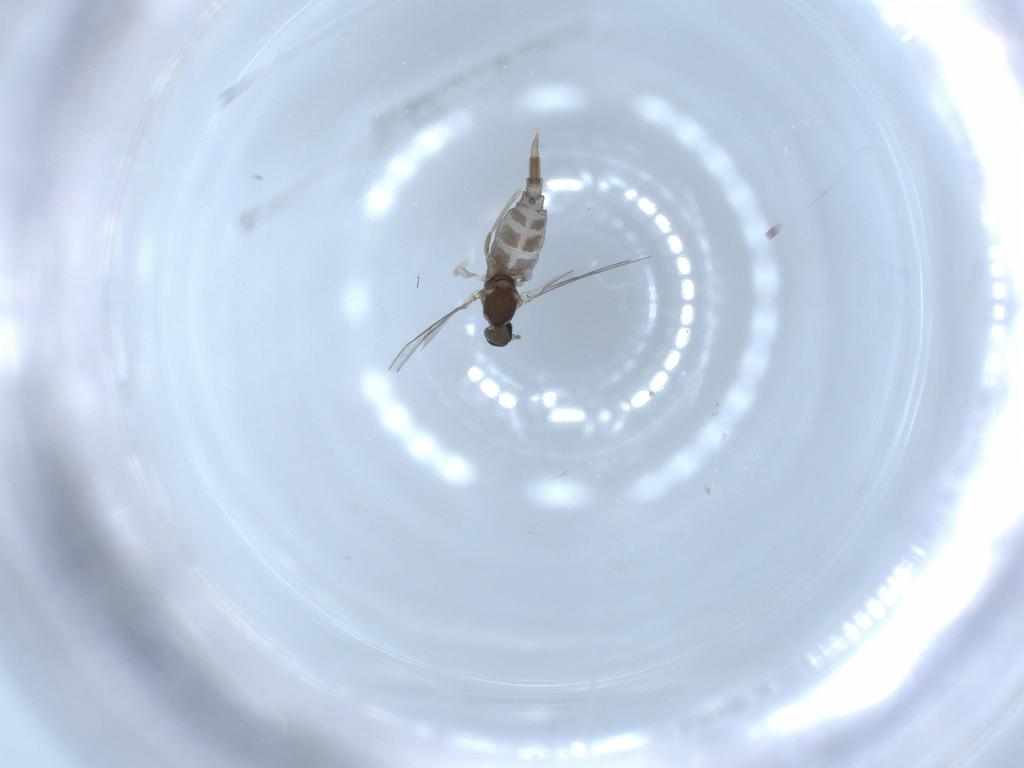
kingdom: Animalia
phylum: Arthropoda
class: Insecta
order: Diptera
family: Cecidomyiidae
